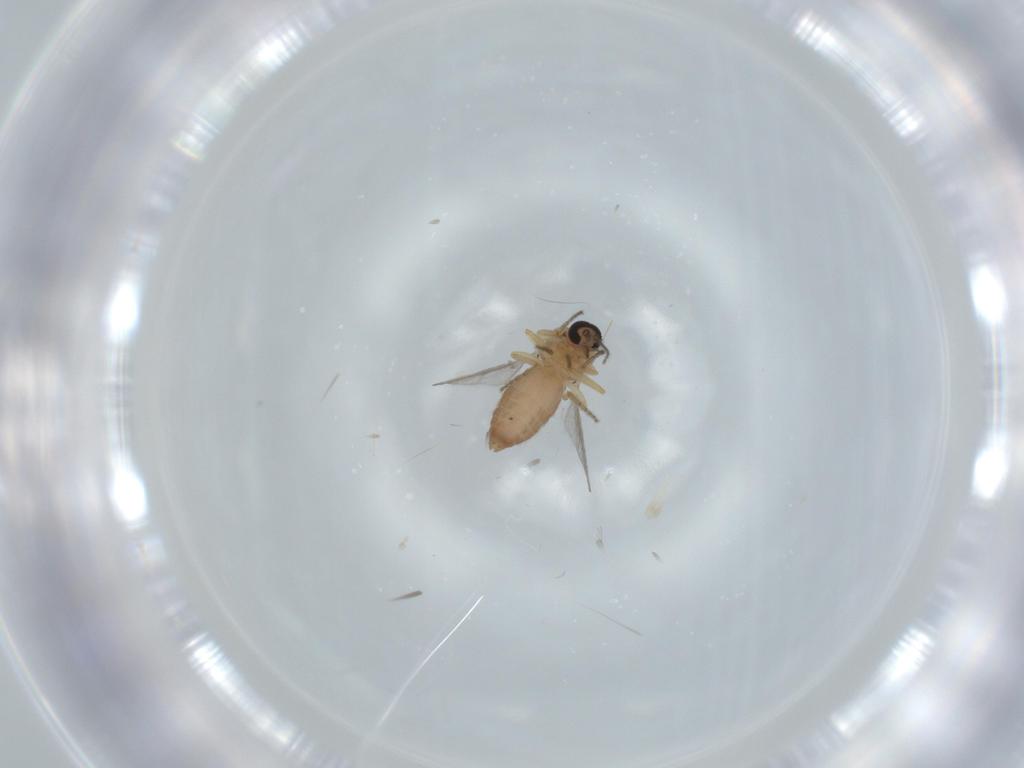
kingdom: Animalia
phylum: Arthropoda
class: Insecta
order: Diptera
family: Ceratopogonidae
